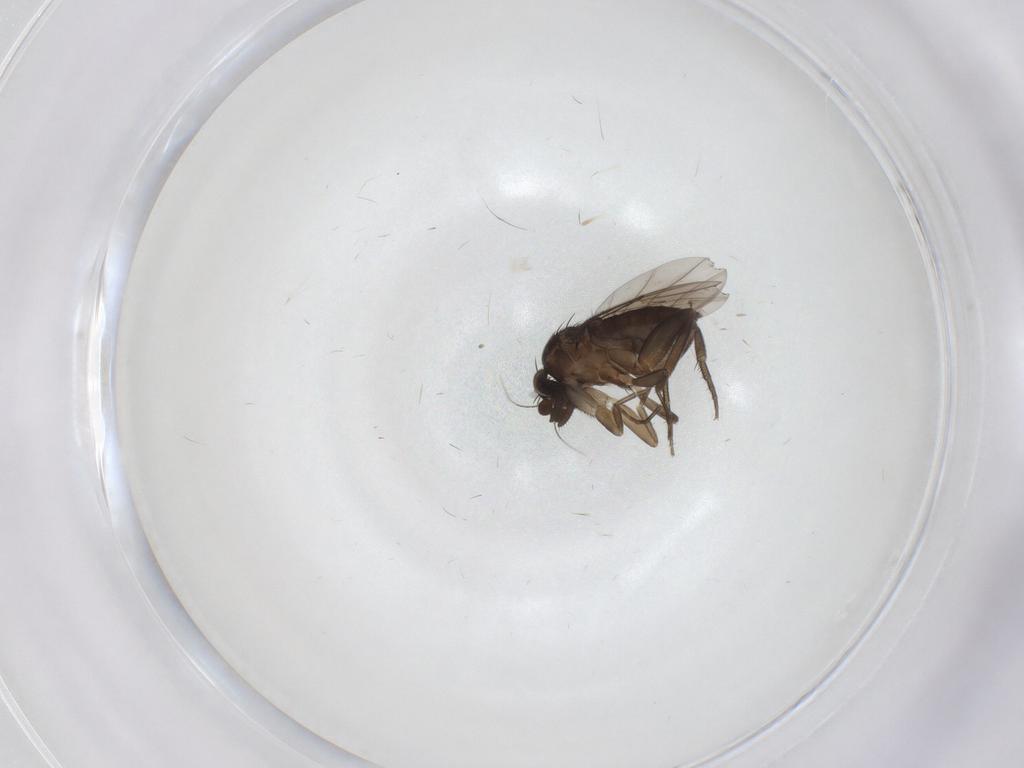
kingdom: Animalia
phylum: Arthropoda
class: Insecta
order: Diptera
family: Phoridae
